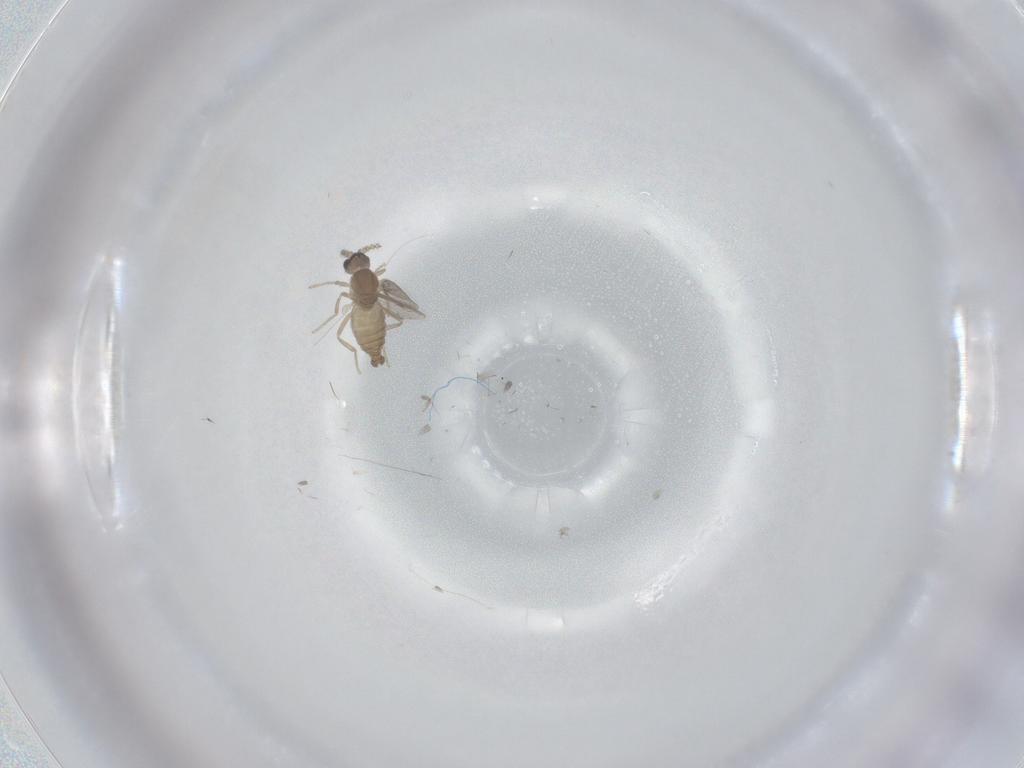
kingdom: Animalia
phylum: Arthropoda
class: Insecta
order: Diptera
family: Cecidomyiidae
